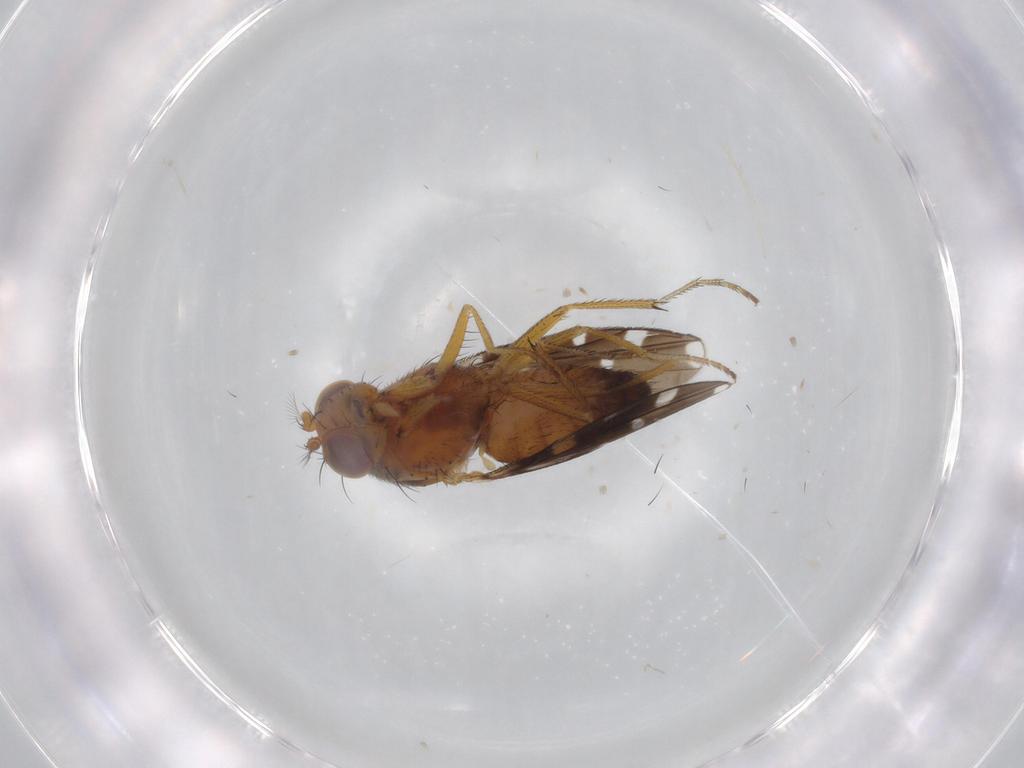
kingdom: Animalia
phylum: Arthropoda
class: Insecta
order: Diptera
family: Ephydridae
